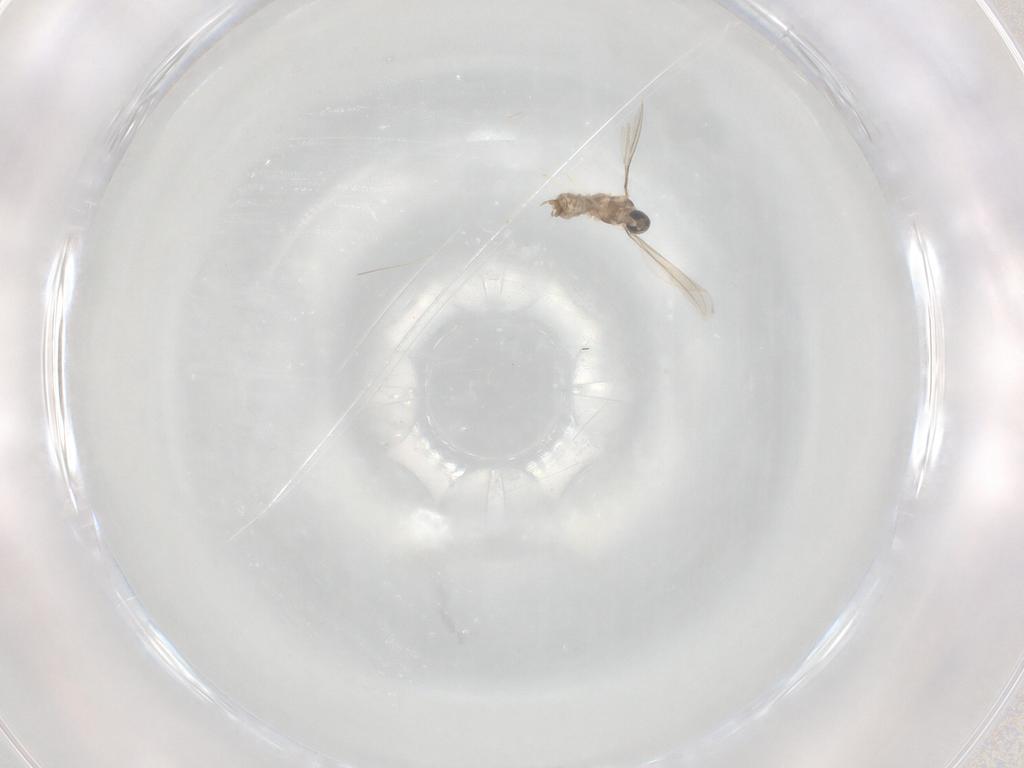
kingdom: Animalia
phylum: Arthropoda
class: Insecta
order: Diptera
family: Cecidomyiidae
